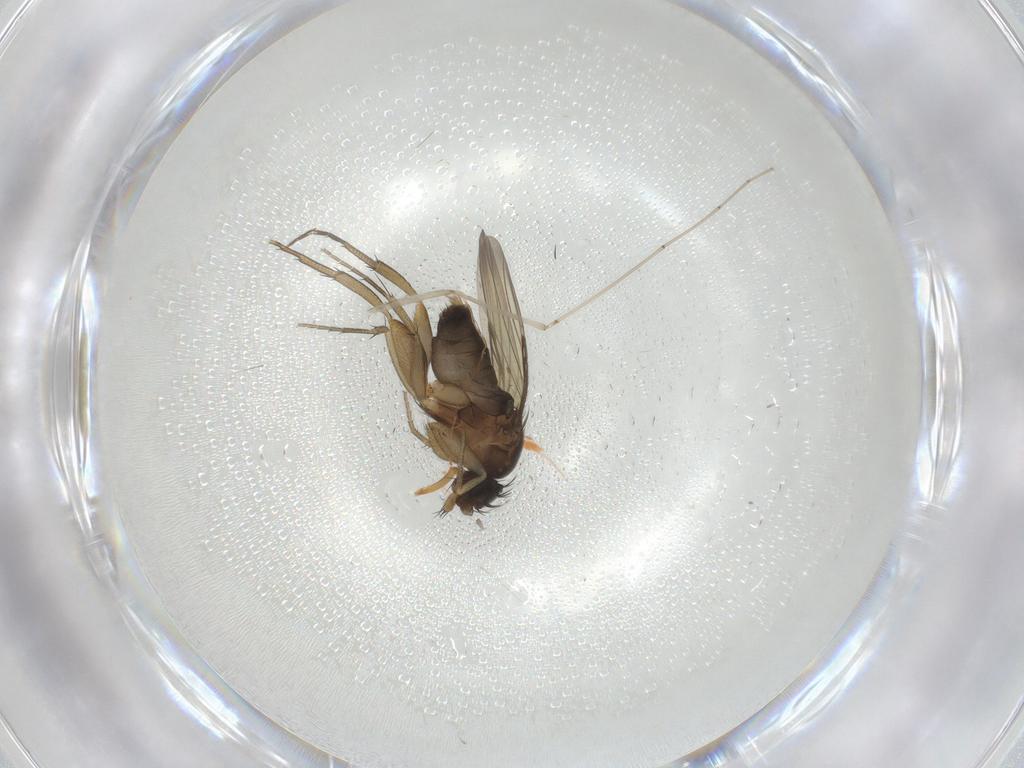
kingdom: Animalia
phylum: Arthropoda
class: Insecta
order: Diptera
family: Phoridae
